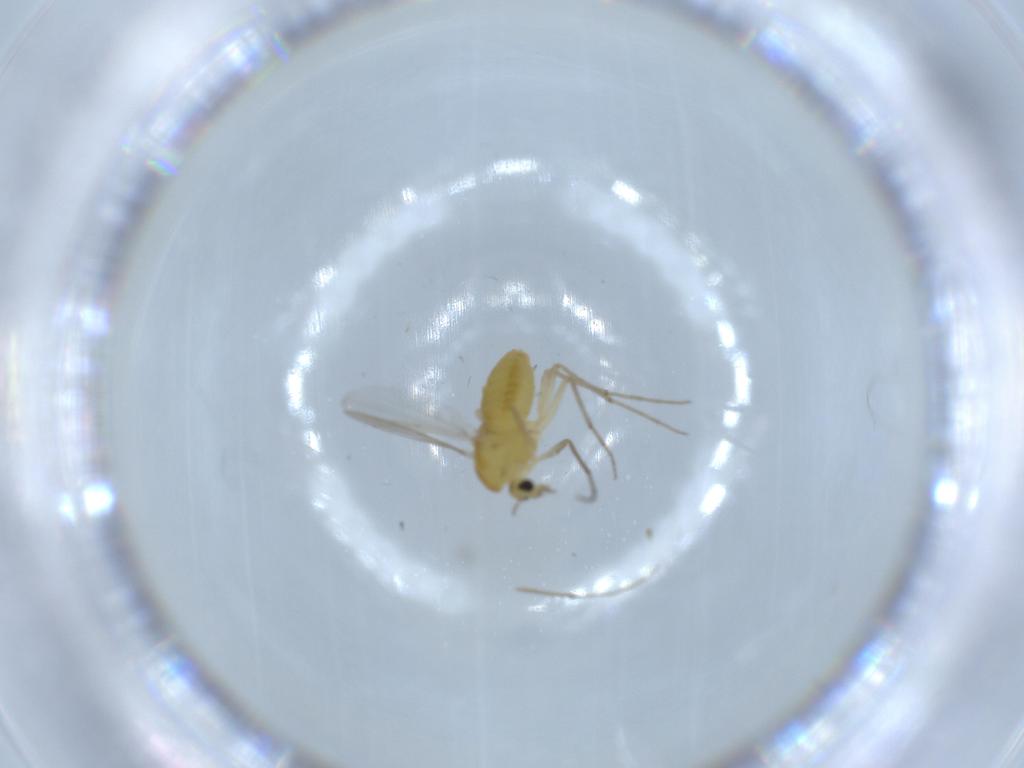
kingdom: Animalia
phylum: Arthropoda
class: Insecta
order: Diptera
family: Chironomidae
